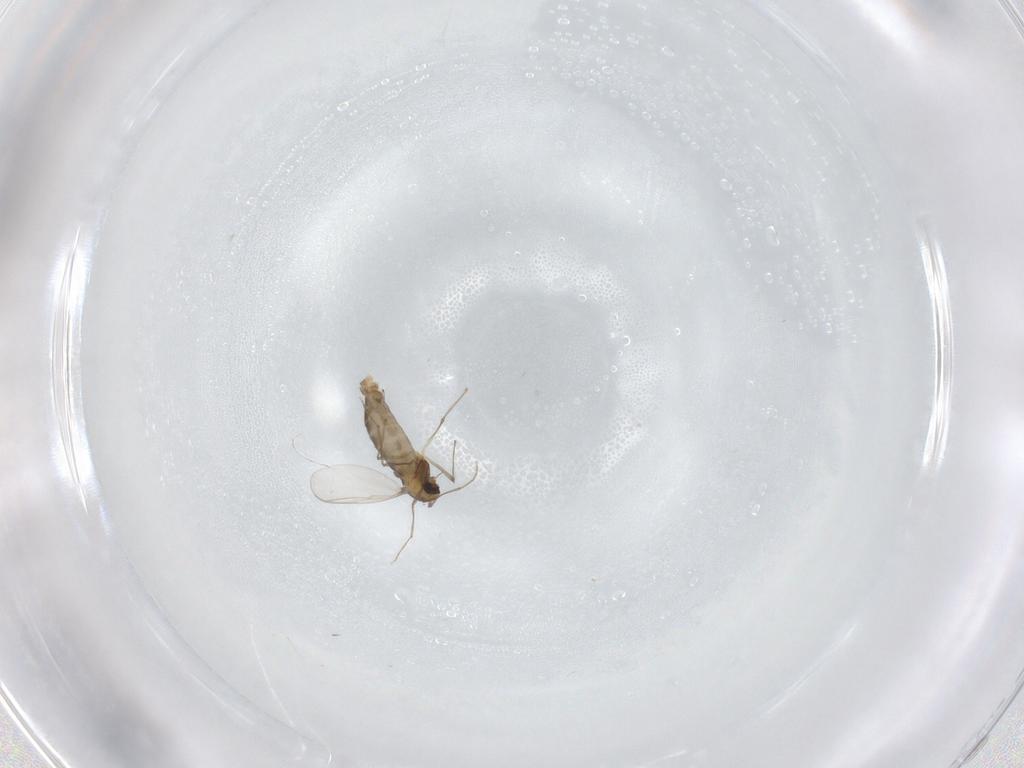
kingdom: Animalia
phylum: Arthropoda
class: Insecta
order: Diptera
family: Chironomidae
